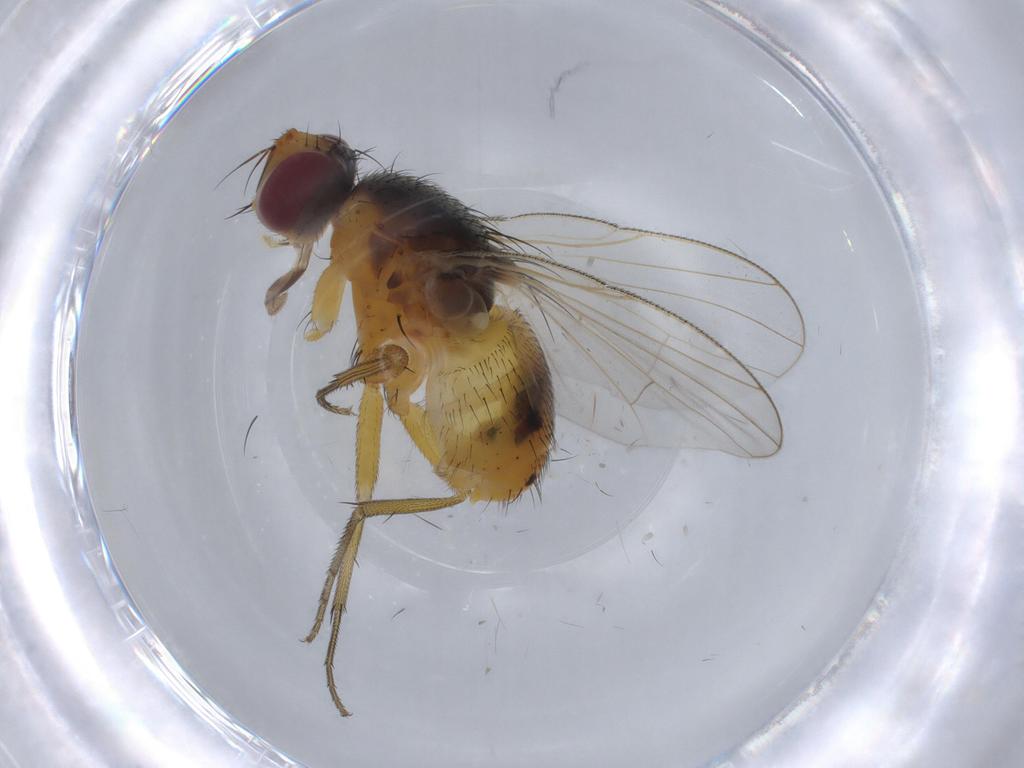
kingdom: Animalia
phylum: Arthropoda
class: Insecta
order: Diptera
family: Muscidae
